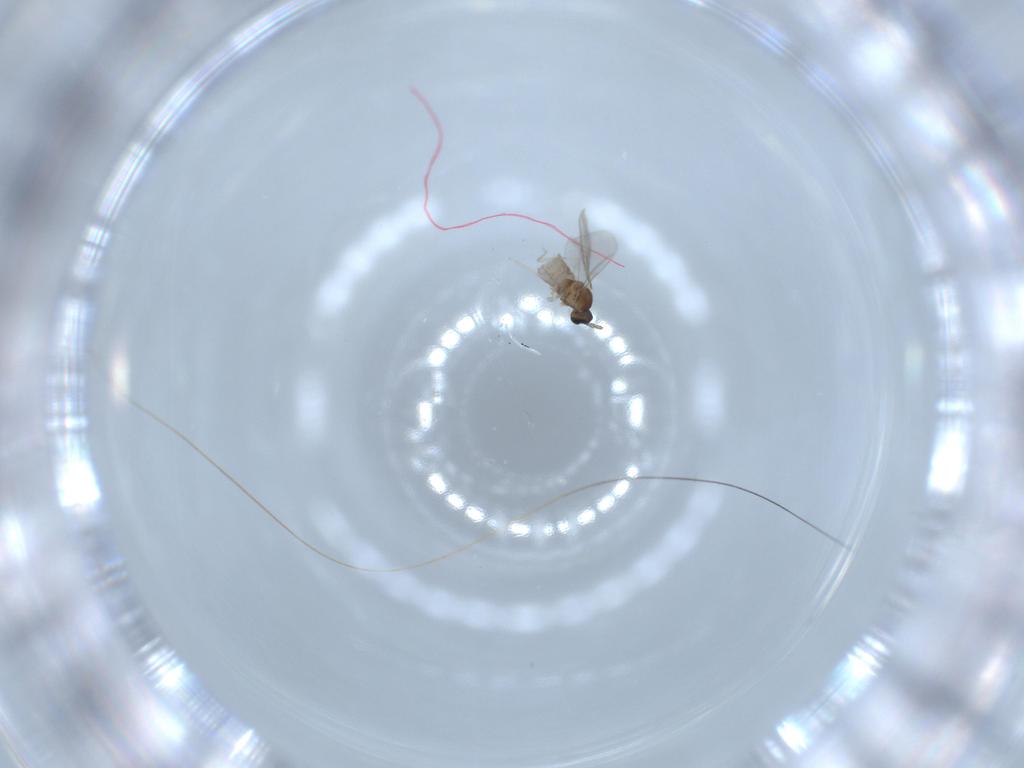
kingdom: Animalia
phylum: Arthropoda
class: Insecta
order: Diptera
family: Sciaridae
